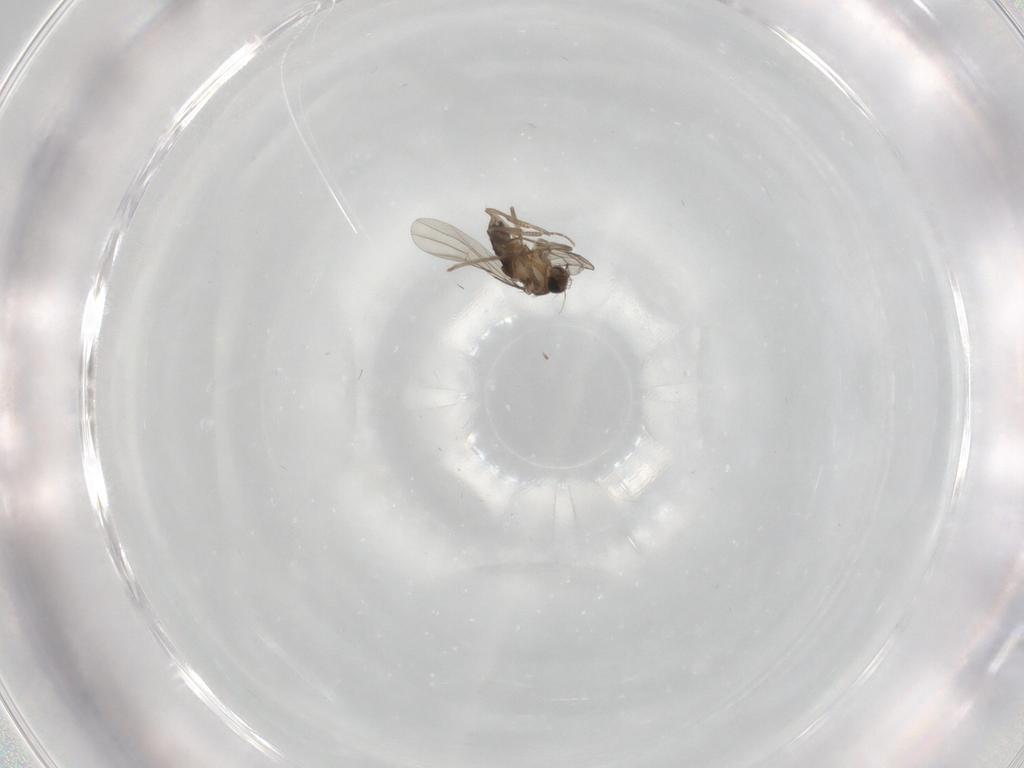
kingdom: Animalia
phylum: Arthropoda
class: Insecta
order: Diptera
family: Phoridae
